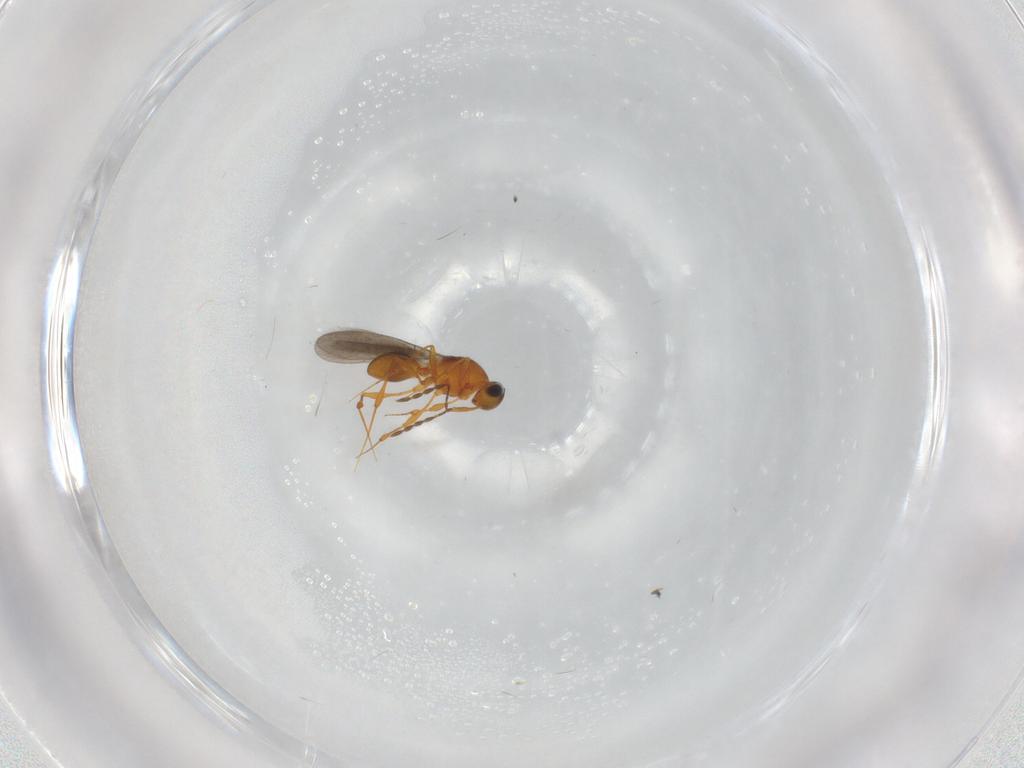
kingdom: Animalia
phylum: Arthropoda
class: Insecta
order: Hymenoptera
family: Platygastridae
